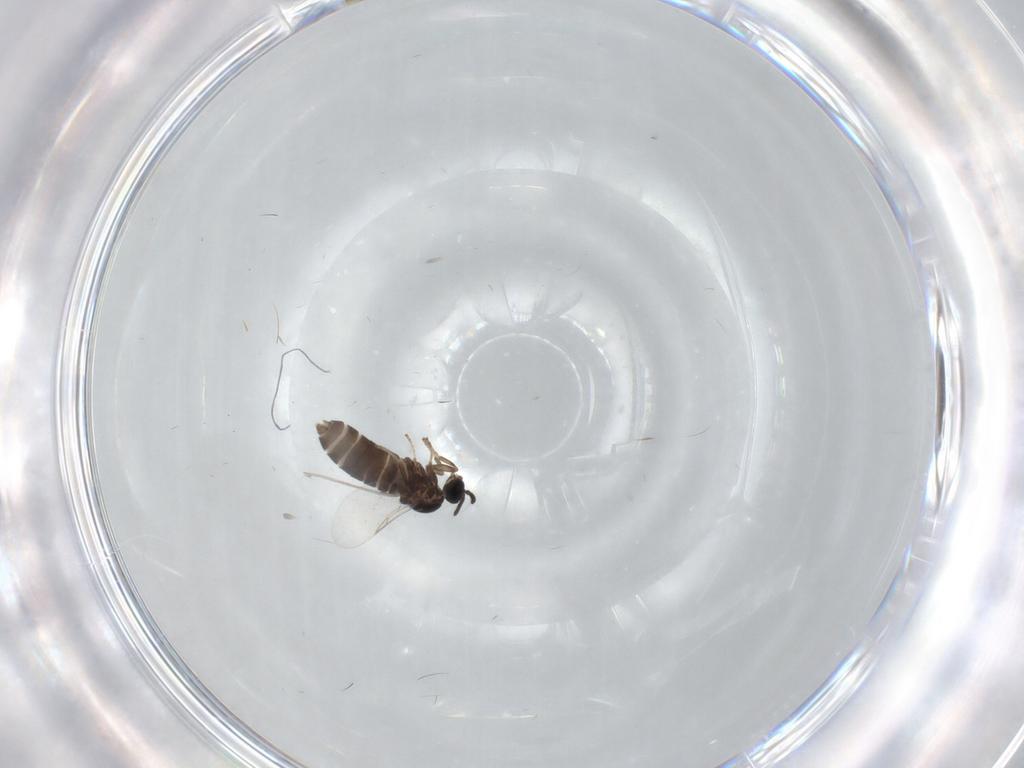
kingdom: Animalia
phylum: Arthropoda
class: Insecta
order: Diptera
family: Scatopsidae
